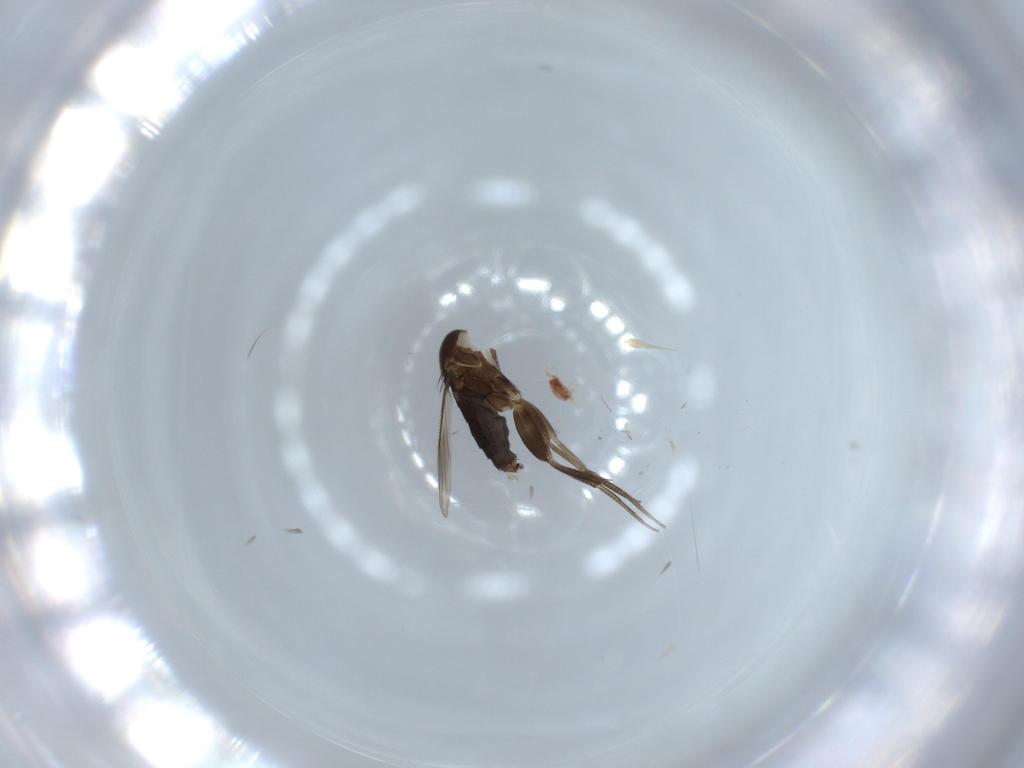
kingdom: Animalia
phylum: Arthropoda
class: Insecta
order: Diptera
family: Phoridae
